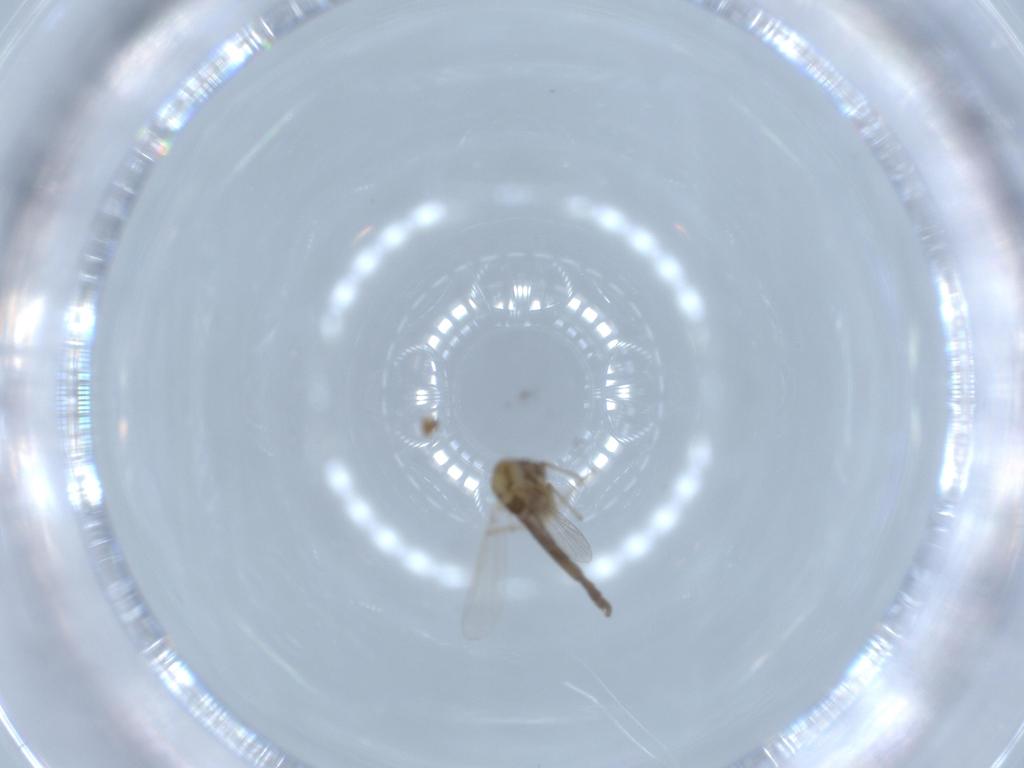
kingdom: Animalia
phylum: Arthropoda
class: Insecta
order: Diptera
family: Chironomidae
